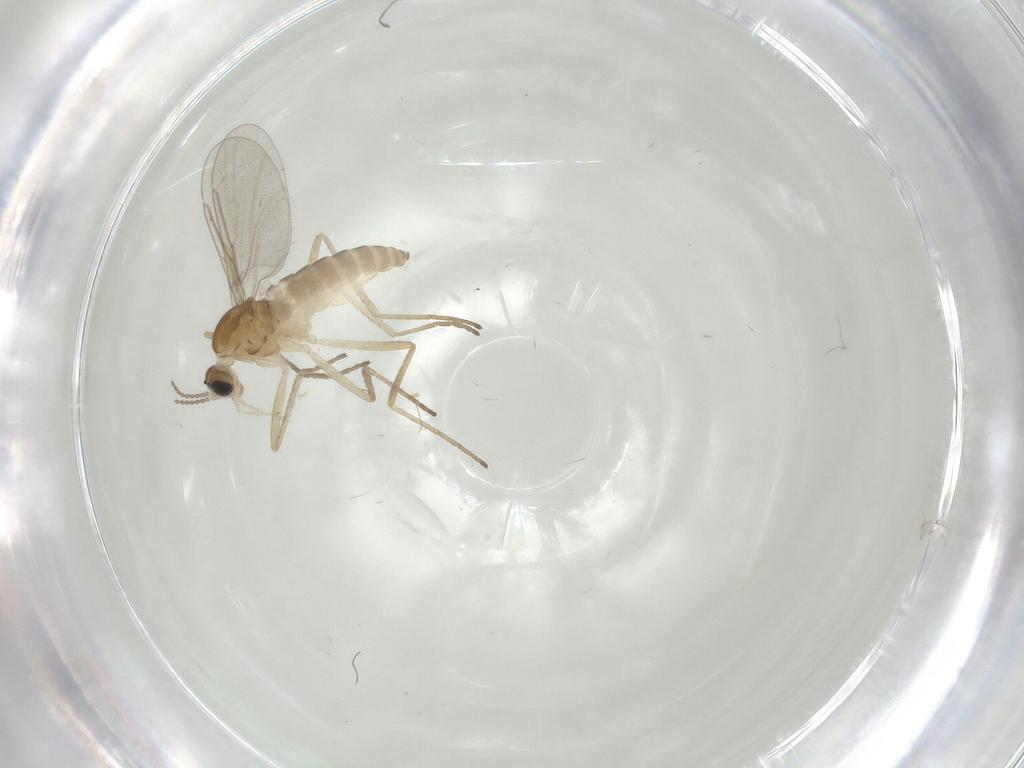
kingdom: Animalia
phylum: Arthropoda
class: Insecta
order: Diptera
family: Cecidomyiidae
